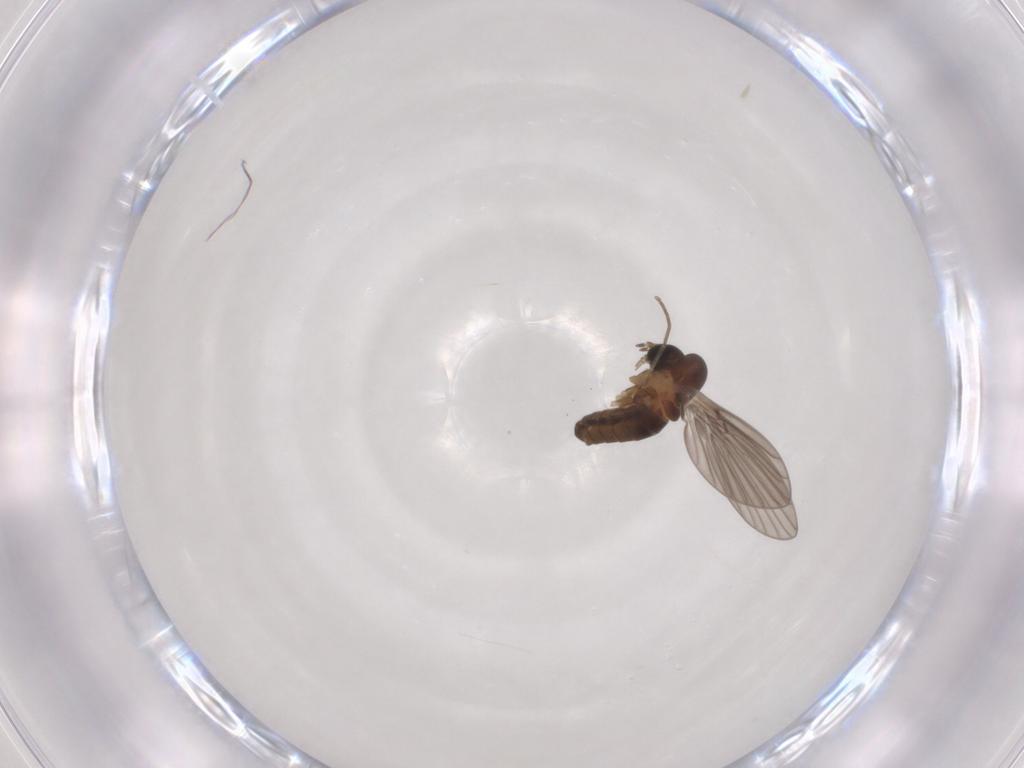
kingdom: Animalia
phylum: Arthropoda
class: Insecta
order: Diptera
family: Psychodidae
